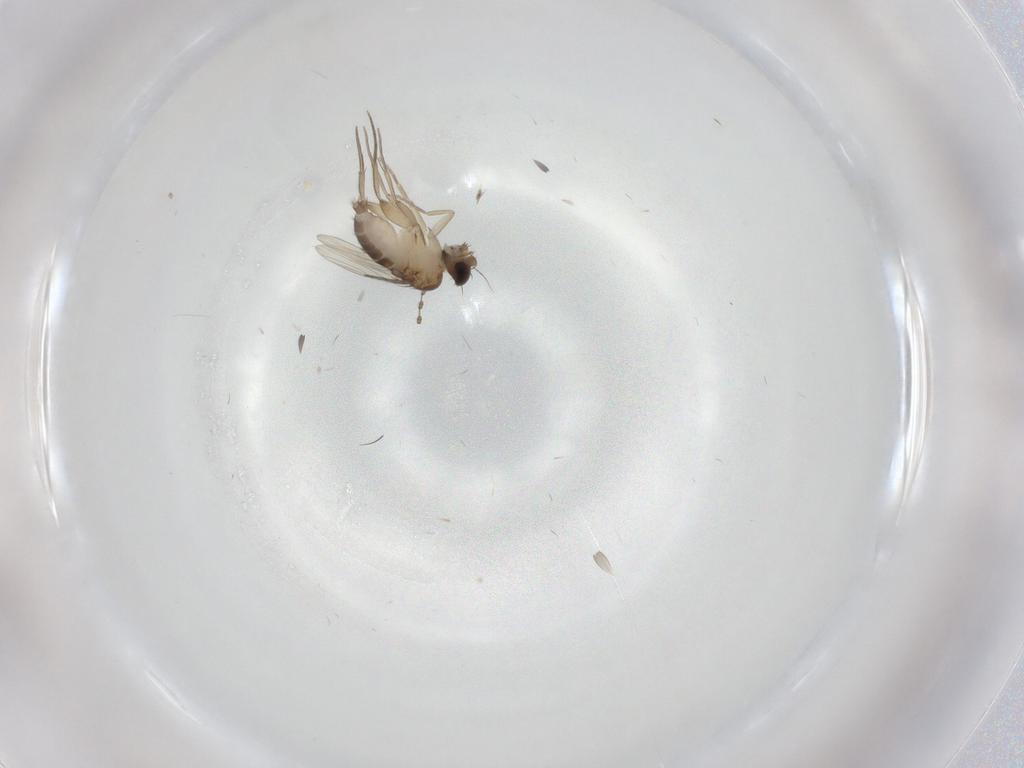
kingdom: Animalia
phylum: Arthropoda
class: Insecta
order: Diptera
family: Phoridae
